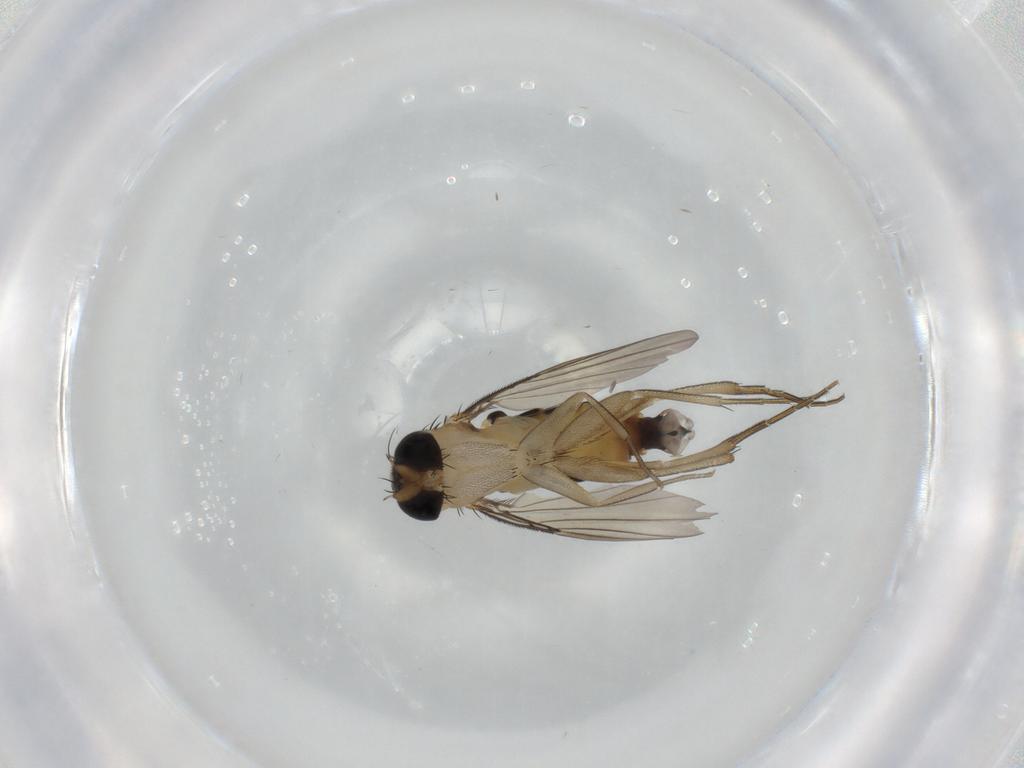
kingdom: Animalia
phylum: Arthropoda
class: Insecta
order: Diptera
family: Phoridae
